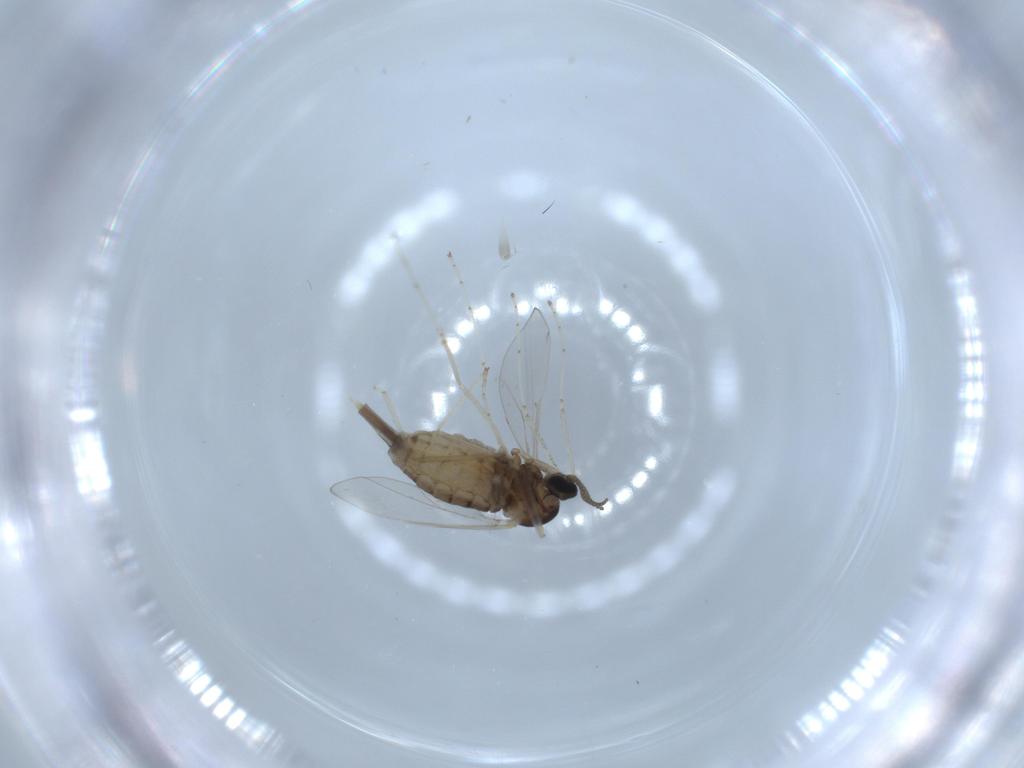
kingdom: Animalia
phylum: Arthropoda
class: Insecta
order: Diptera
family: Cecidomyiidae
